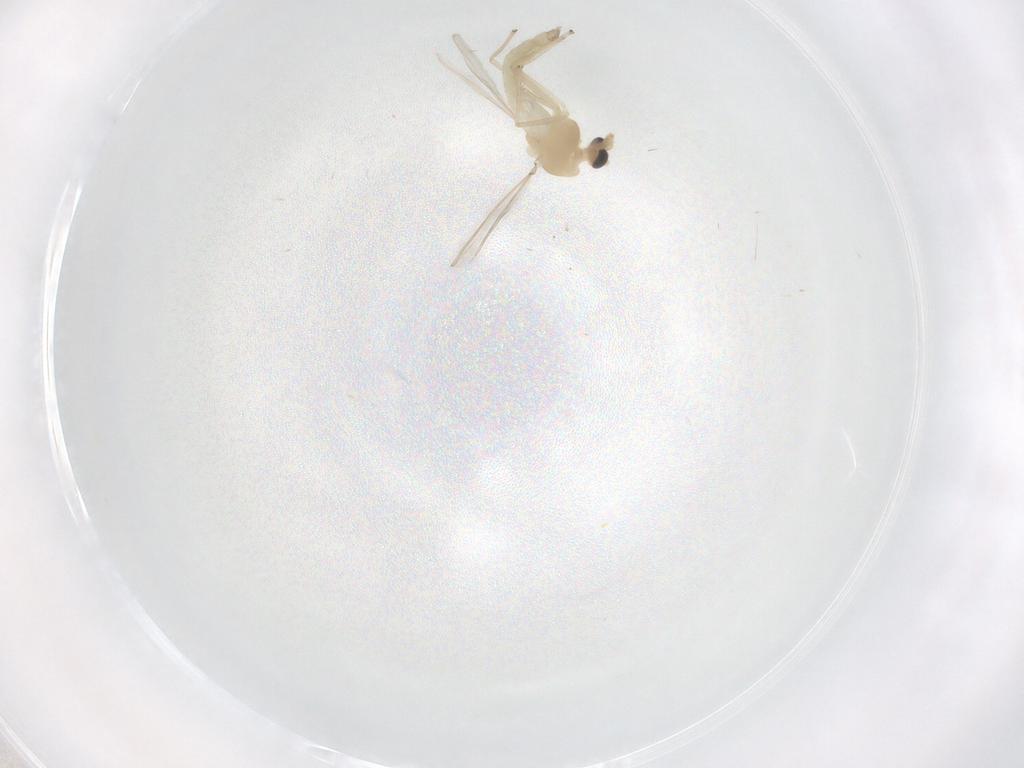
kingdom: Animalia
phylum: Arthropoda
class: Insecta
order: Diptera
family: Chironomidae
